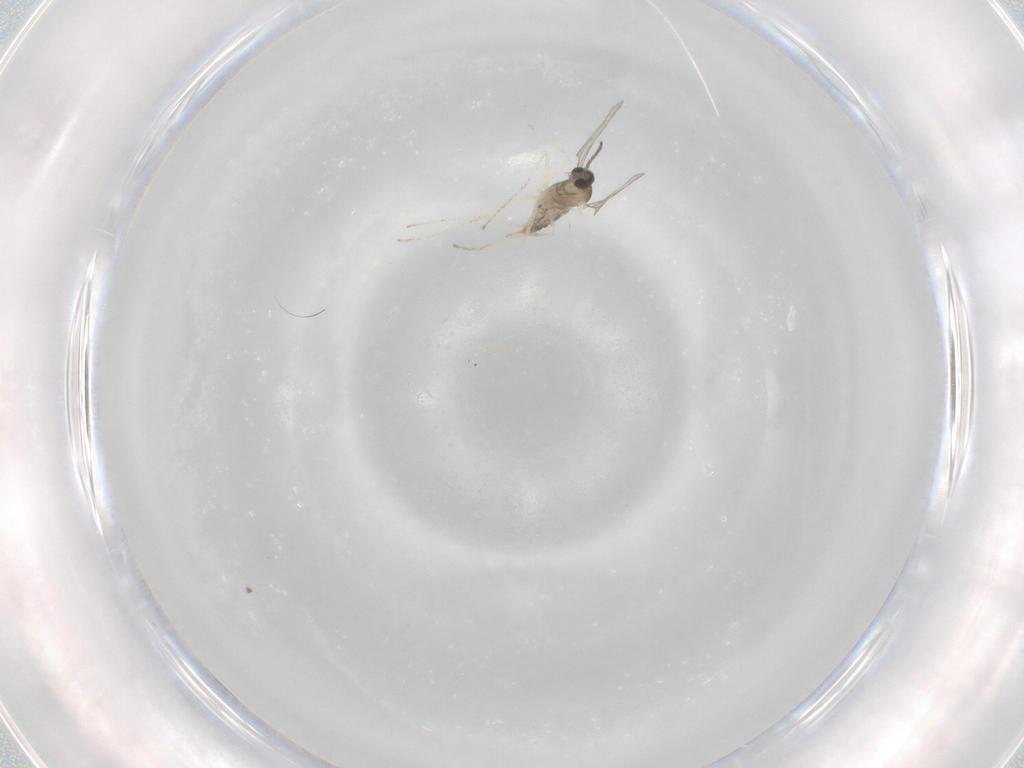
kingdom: Animalia
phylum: Arthropoda
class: Insecta
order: Diptera
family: Cecidomyiidae
